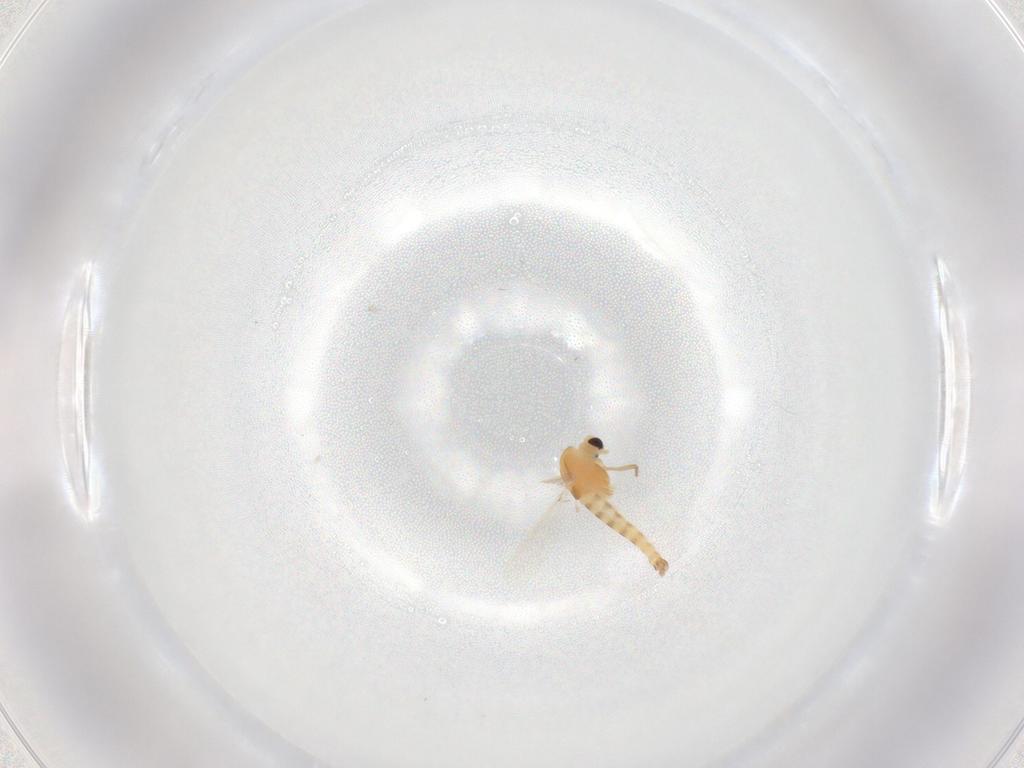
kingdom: Animalia
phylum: Arthropoda
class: Insecta
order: Diptera
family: Chironomidae
